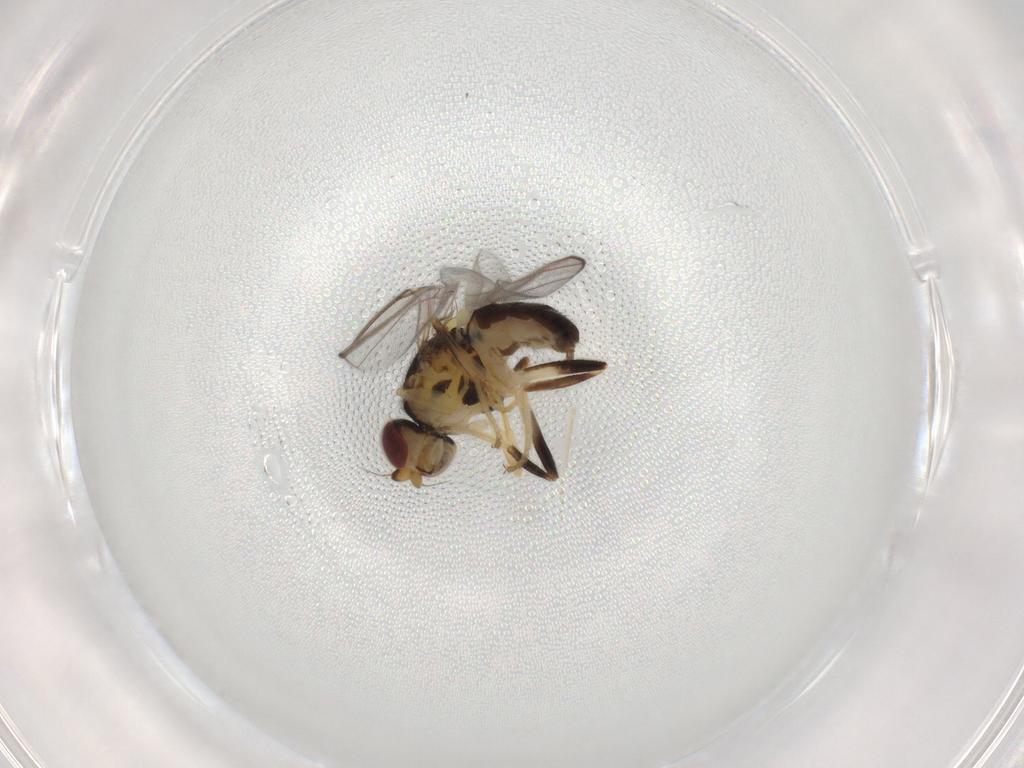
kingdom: Animalia
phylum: Arthropoda
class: Insecta
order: Diptera
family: Chloropidae
